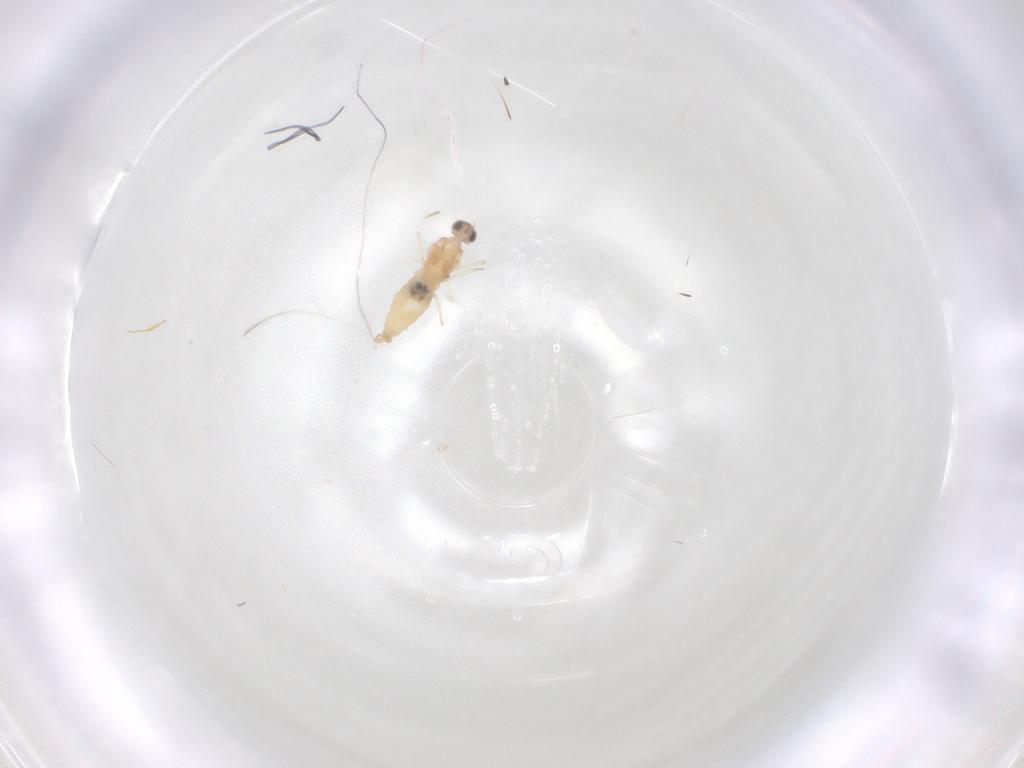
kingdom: Animalia
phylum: Arthropoda
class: Insecta
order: Diptera
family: Cecidomyiidae
